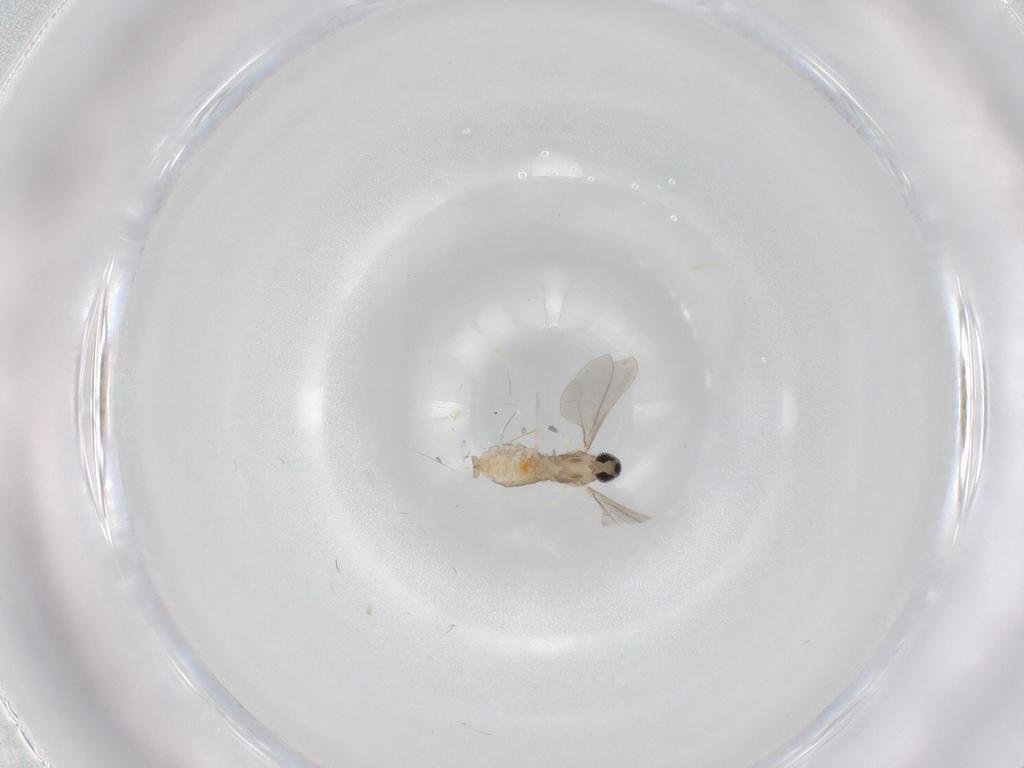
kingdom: Animalia
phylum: Arthropoda
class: Insecta
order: Diptera
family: Cecidomyiidae
